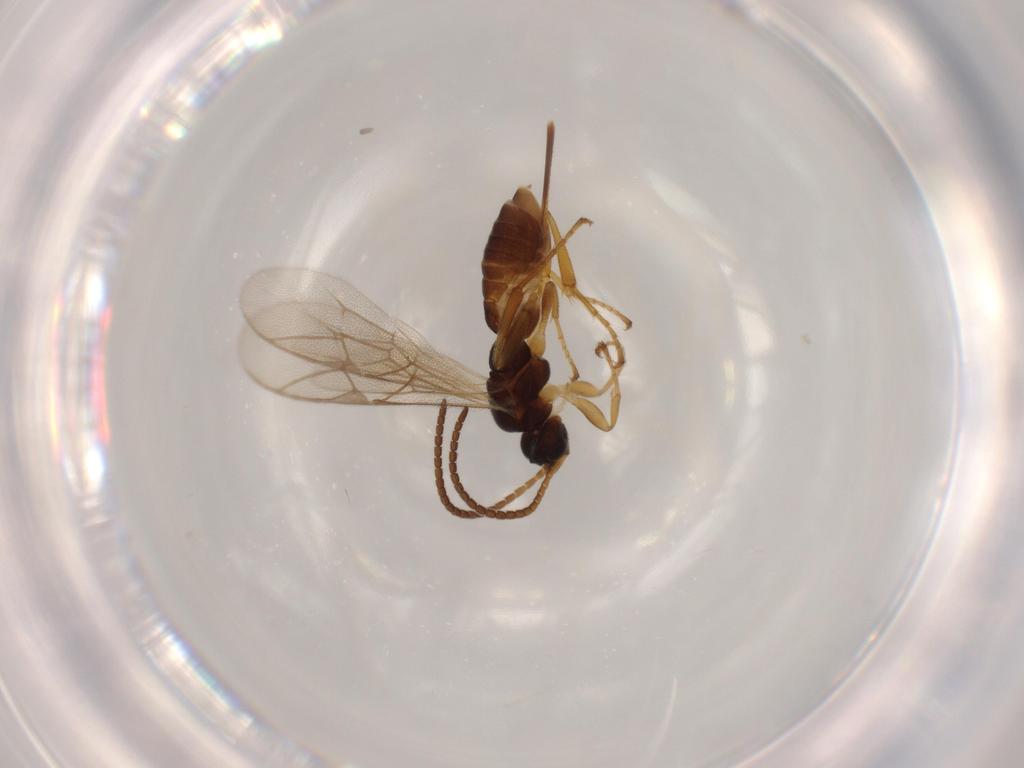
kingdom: Animalia
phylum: Arthropoda
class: Insecta
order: Hymenoptera
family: Ichneumonidae
